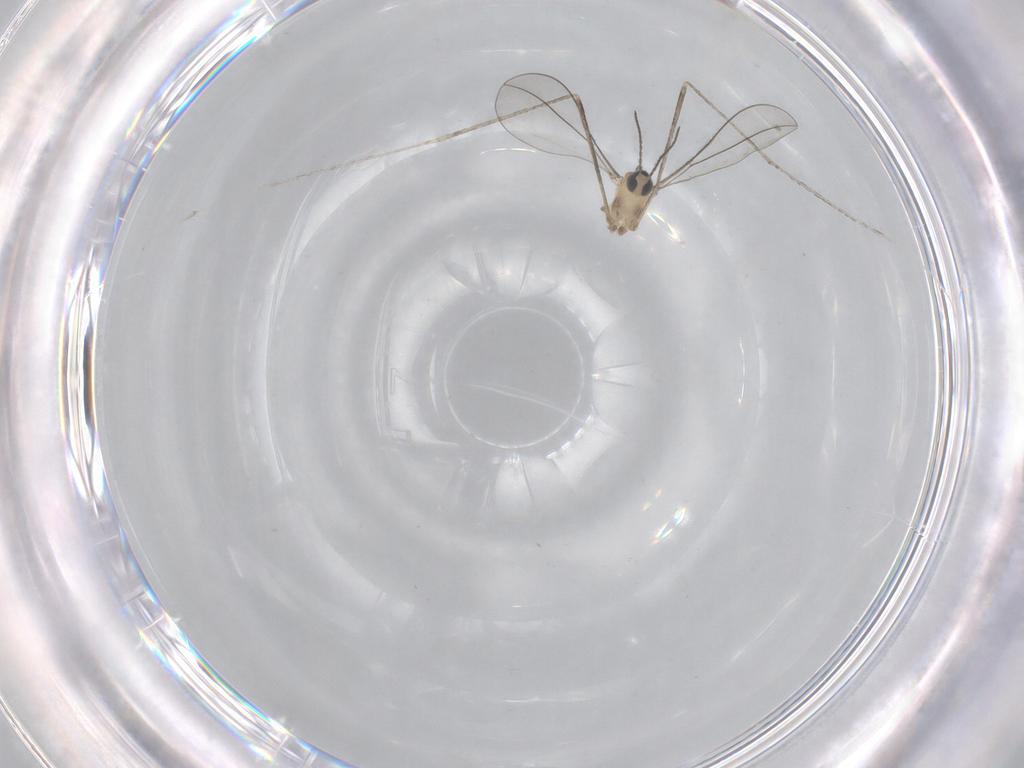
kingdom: Animalia
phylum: Arthropoda
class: Insecta
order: Diptera
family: Cecidomyiidae
